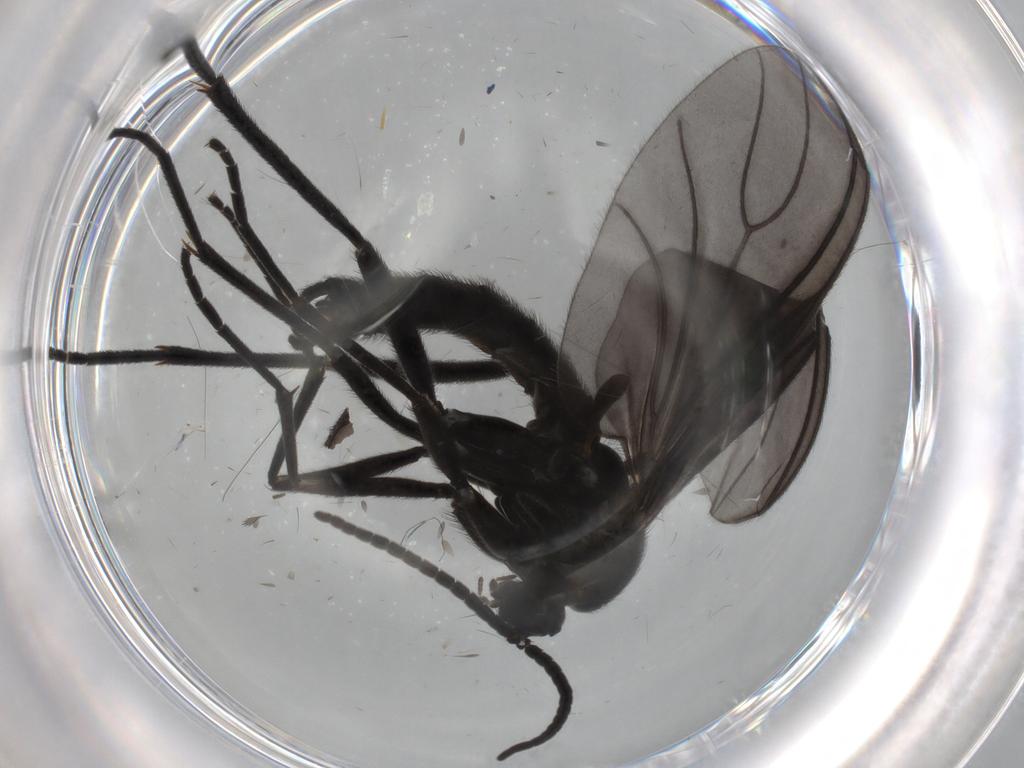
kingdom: Animalia
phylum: Arthropoda
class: Insecta
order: Diptera
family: Sciaridae
